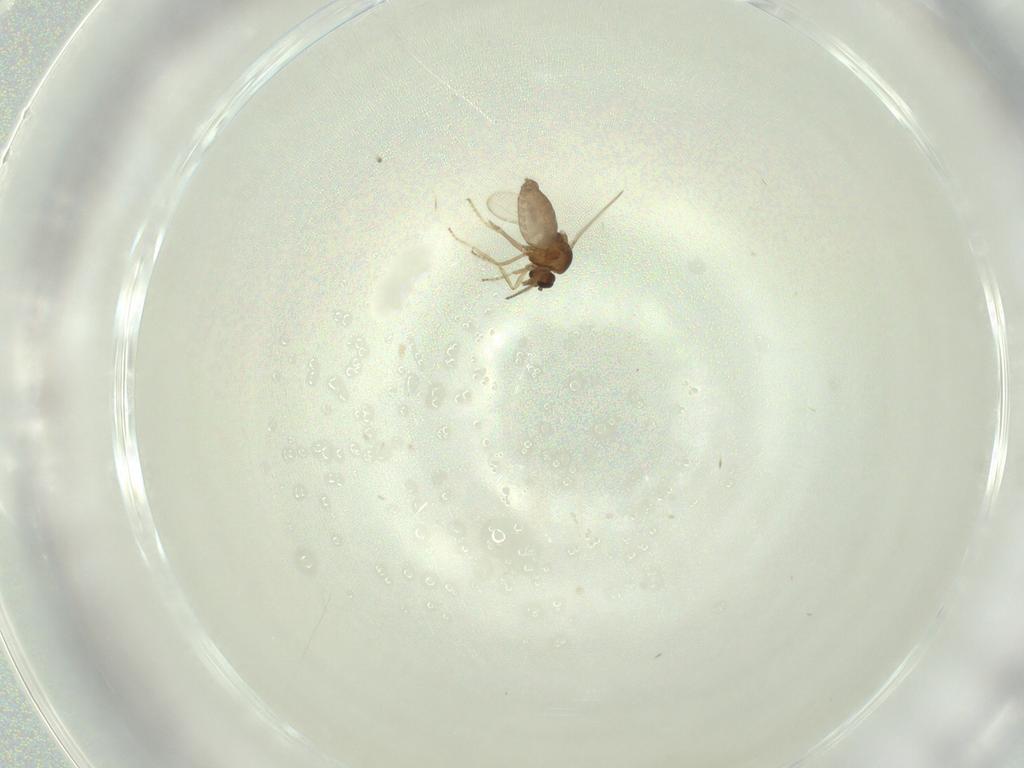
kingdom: Animalia
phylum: Arthropoda
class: Insecta
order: Diptera
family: Ceratopogonidae
